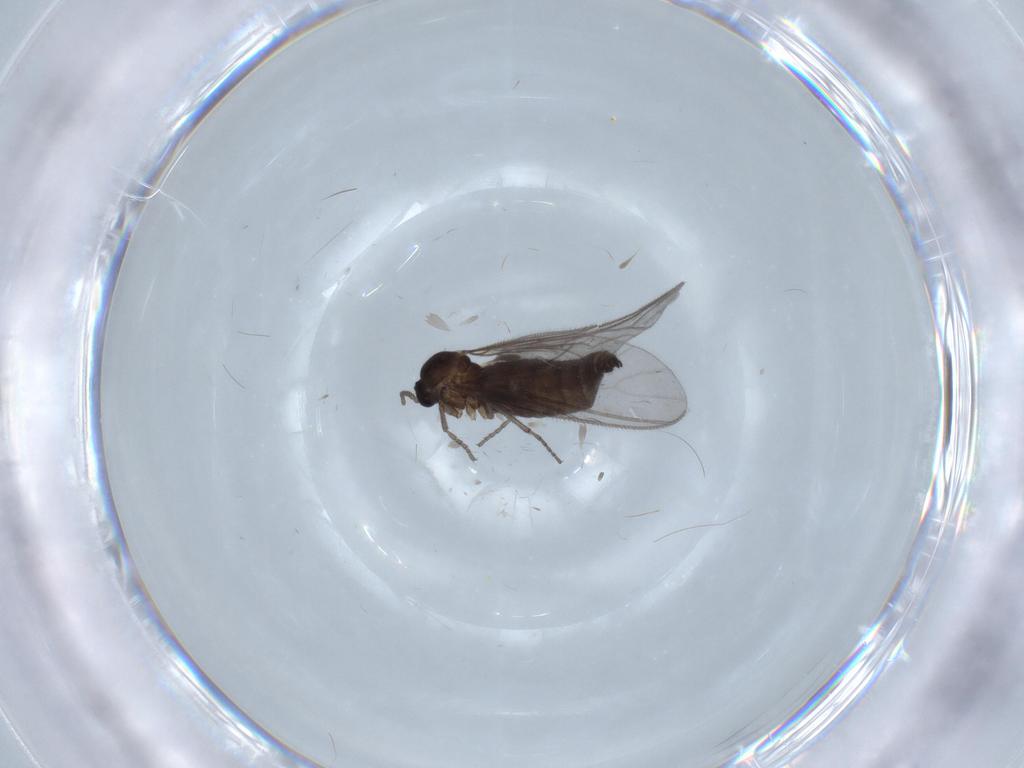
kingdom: Animalia
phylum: Arthropoda
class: Insecta
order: Diptera
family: Sciaridae
